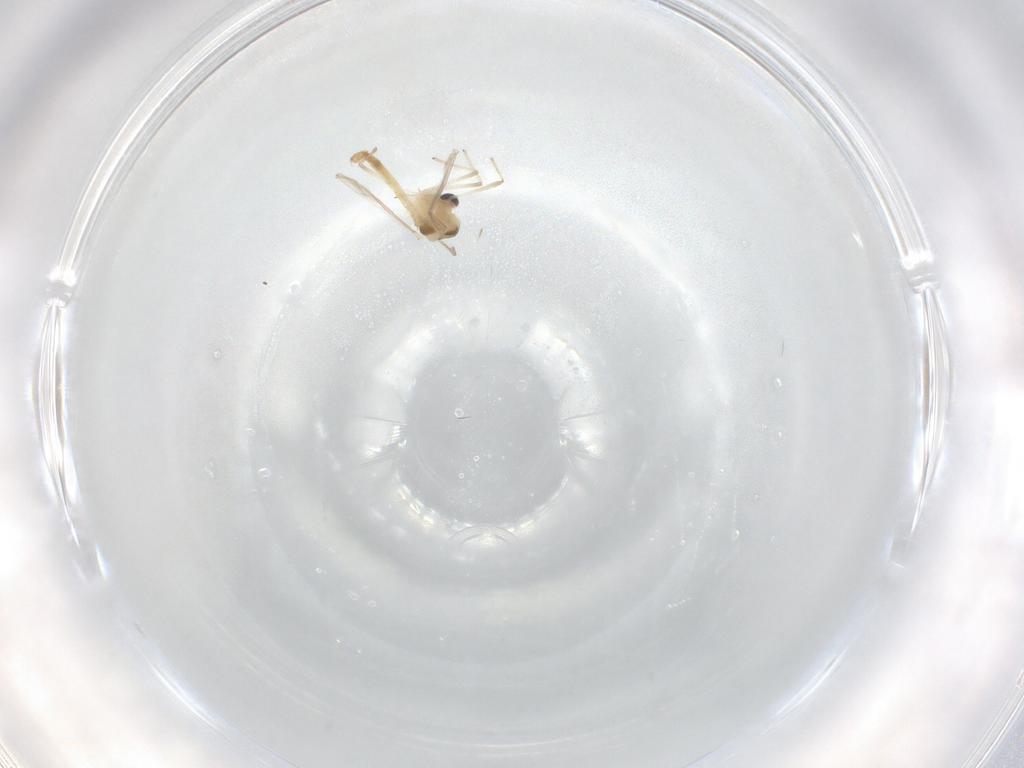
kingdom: Animalia
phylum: Arthropoda
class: Insecta
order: Diptera
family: Chironomidae
